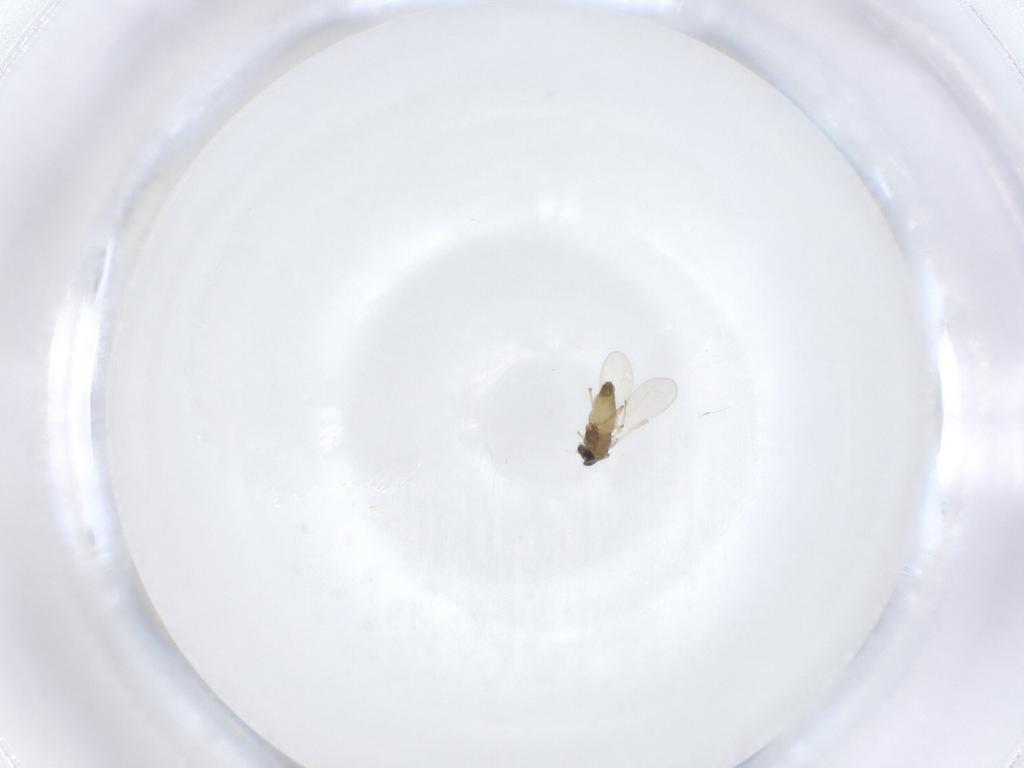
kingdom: Animalia
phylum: Arthropoda
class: Insecta
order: Diptera
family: Chironomidae
